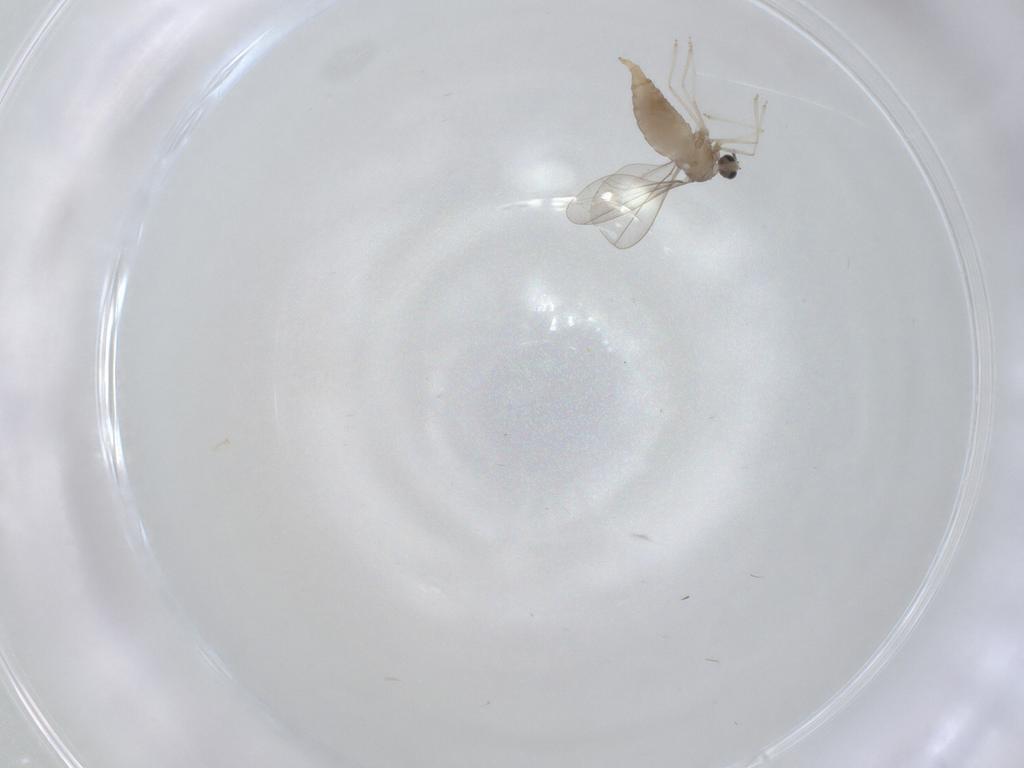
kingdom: Animalia
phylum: Arthropoda
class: Insecta
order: Diptera
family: Cecidomyiidae
